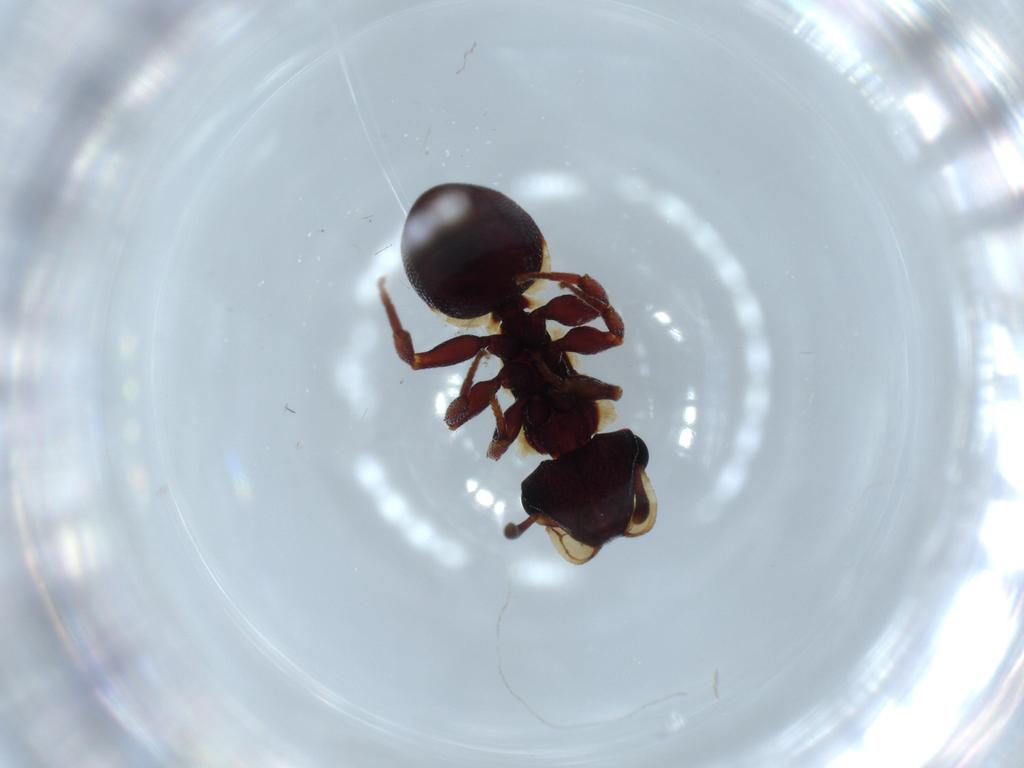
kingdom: Animalia
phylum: Arthropoda
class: Insecta
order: Hymenoptera
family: Formicidae
